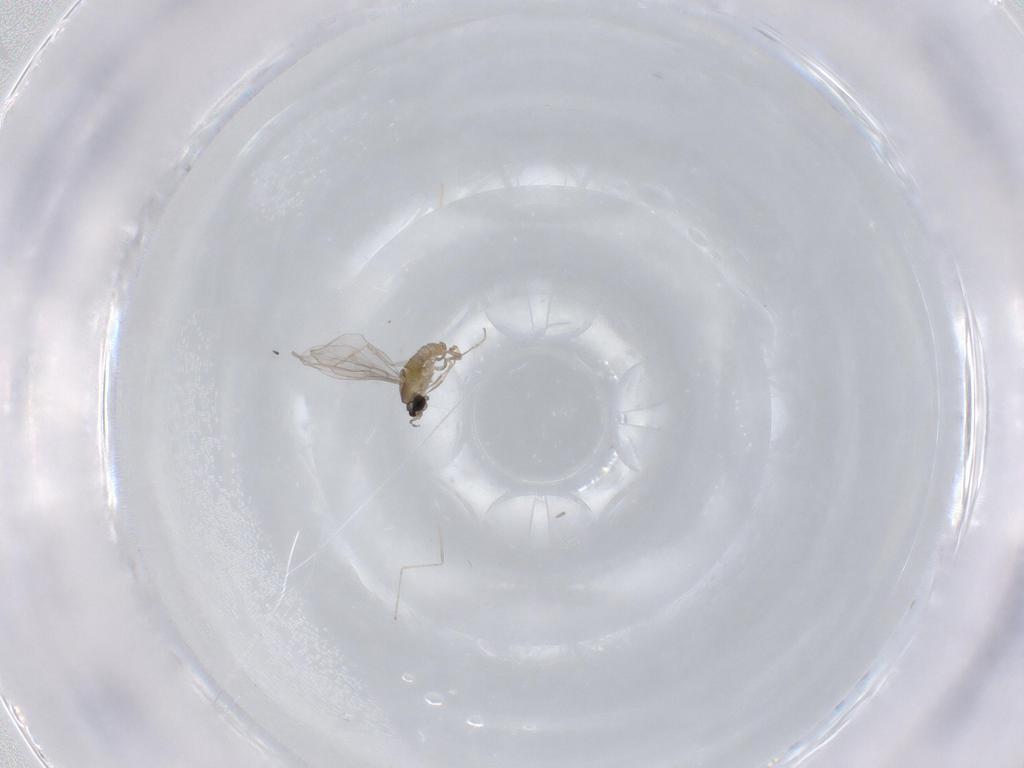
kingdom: Animalia
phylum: Arthropoda
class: Insecta
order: Diptera
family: Cecidomyiidae
